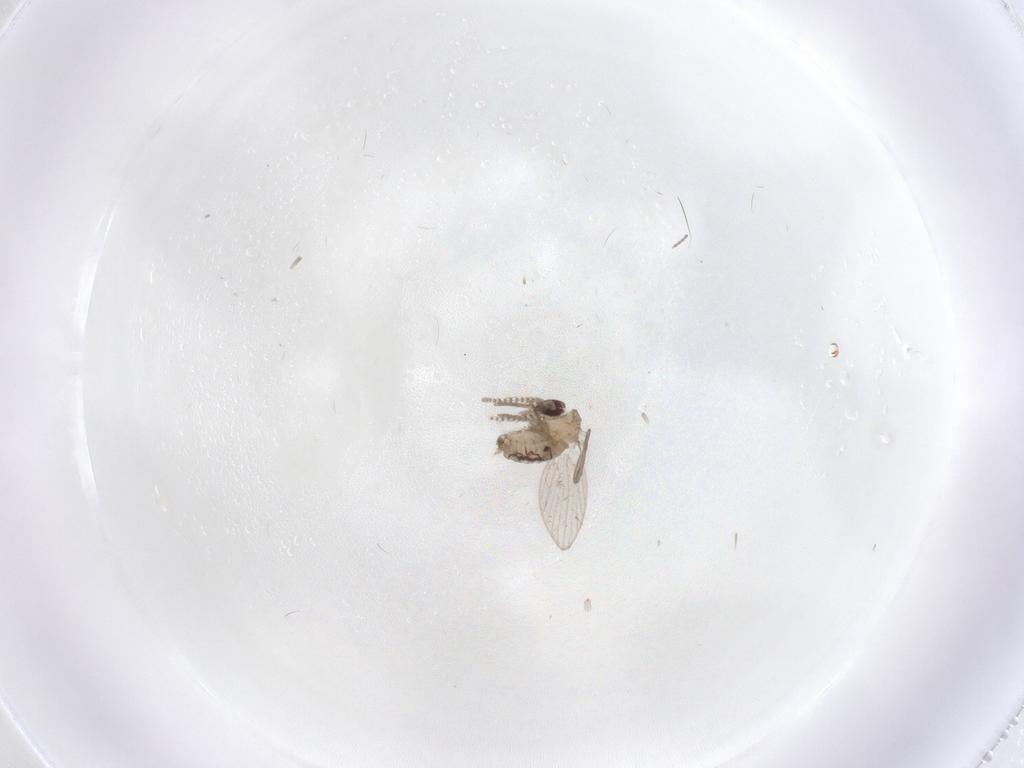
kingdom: Animalia
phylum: Arthropoda
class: Insecta
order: Diptera
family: Psychodidae
